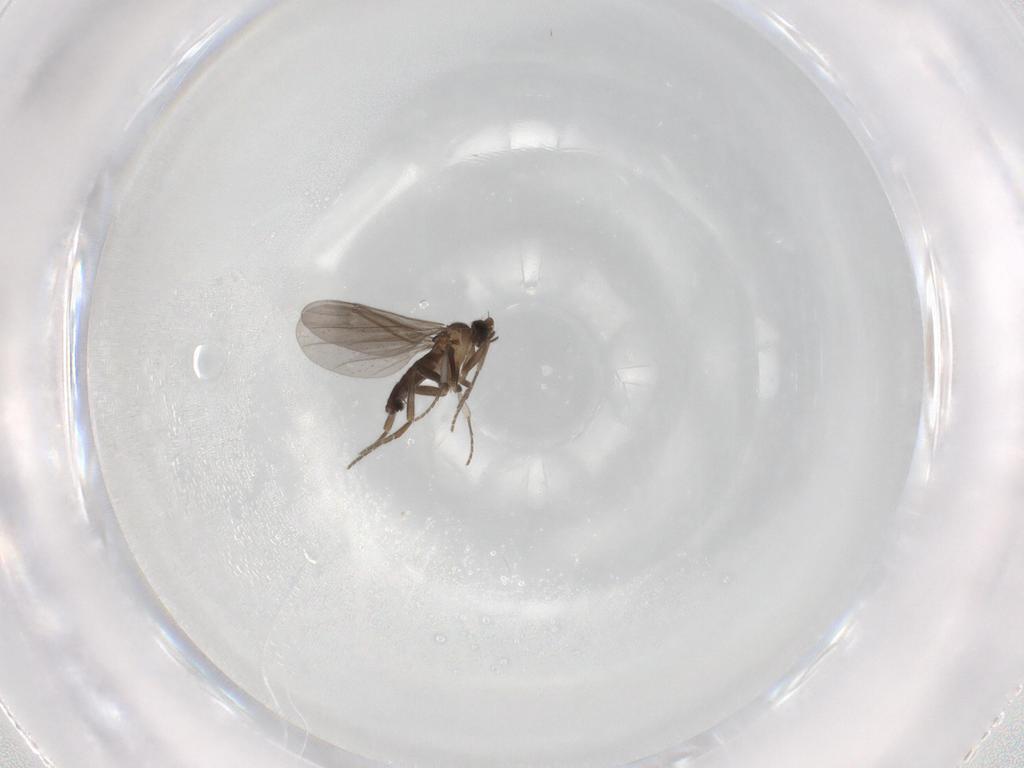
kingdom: Animalia
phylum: Arthropoda
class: Insecta
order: Diptera
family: Phoridae
